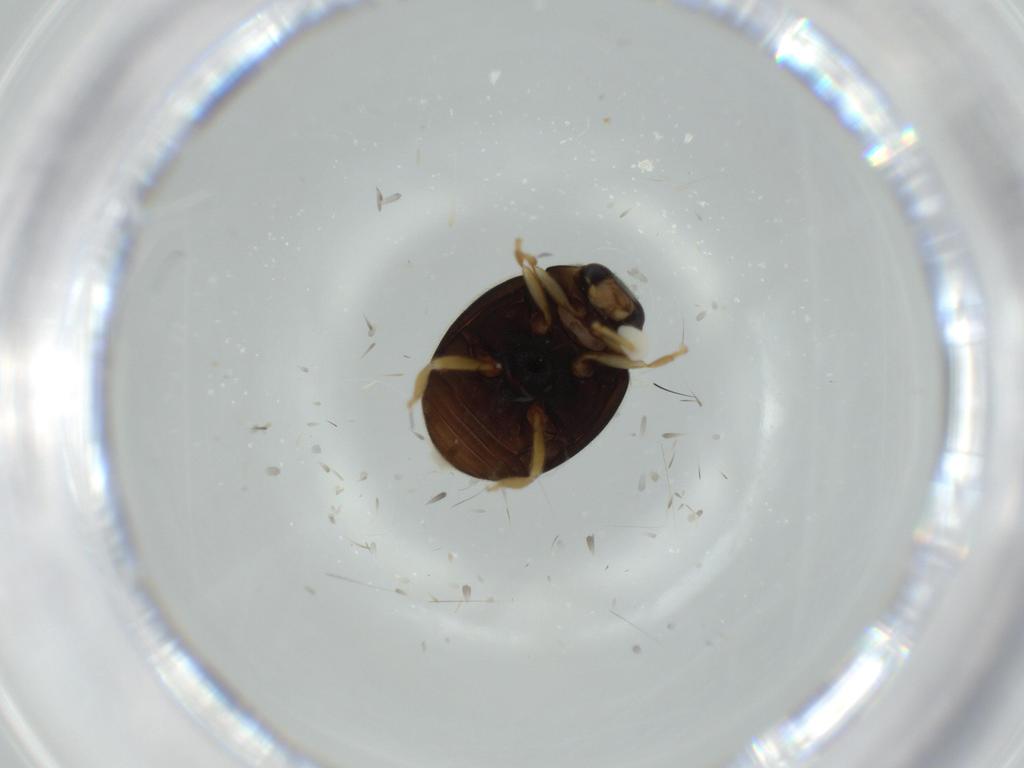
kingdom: Animalia
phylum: Arthropoda
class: Insecta
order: Coleoptera
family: Coccinellidae
